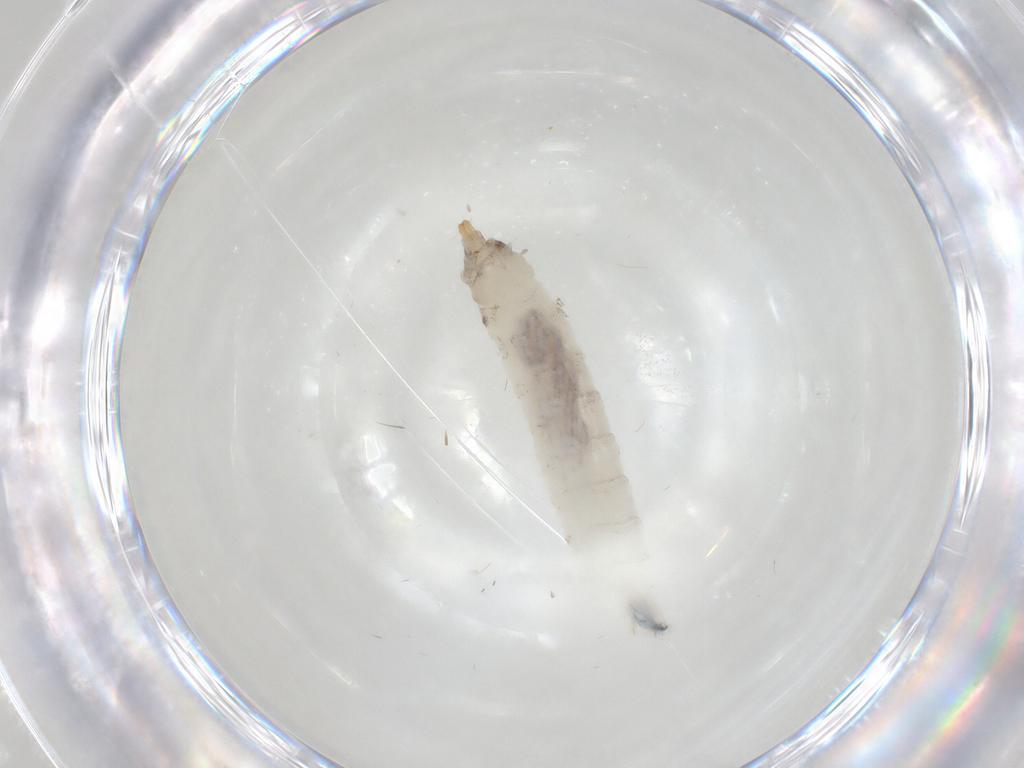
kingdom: Animalia
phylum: Arthropoda
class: Insecta
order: Diptera
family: Drosophilidae
